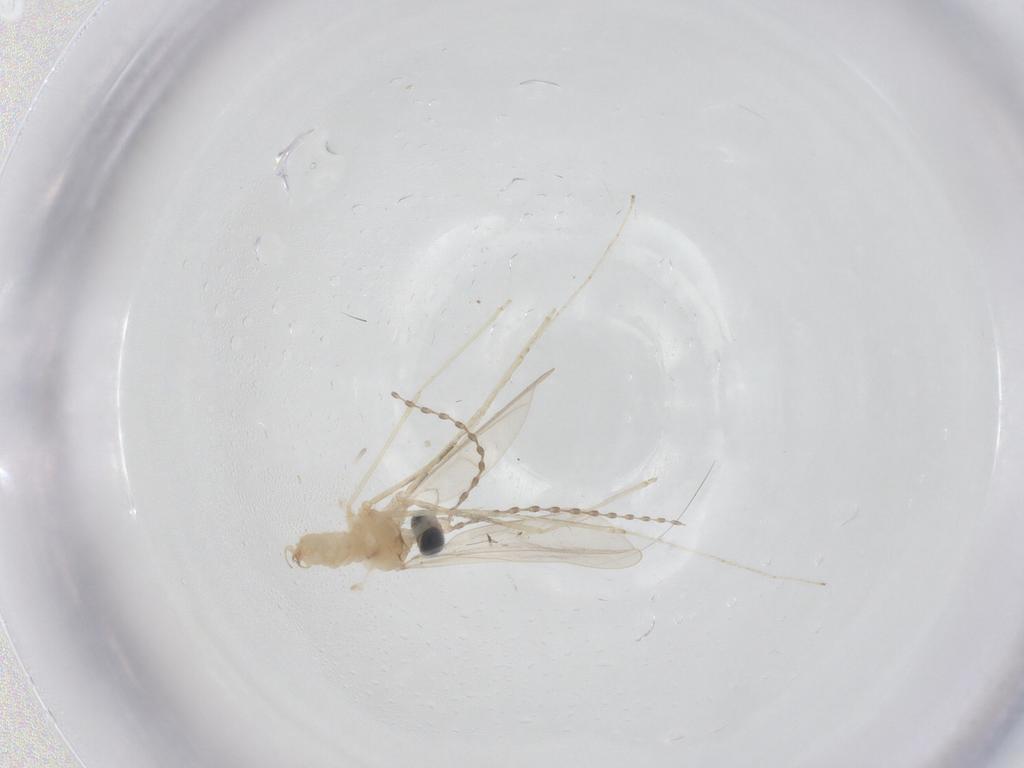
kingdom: Animalia
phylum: Arthropoda
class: Insecta
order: Diptera
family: Cecidomyiidae
